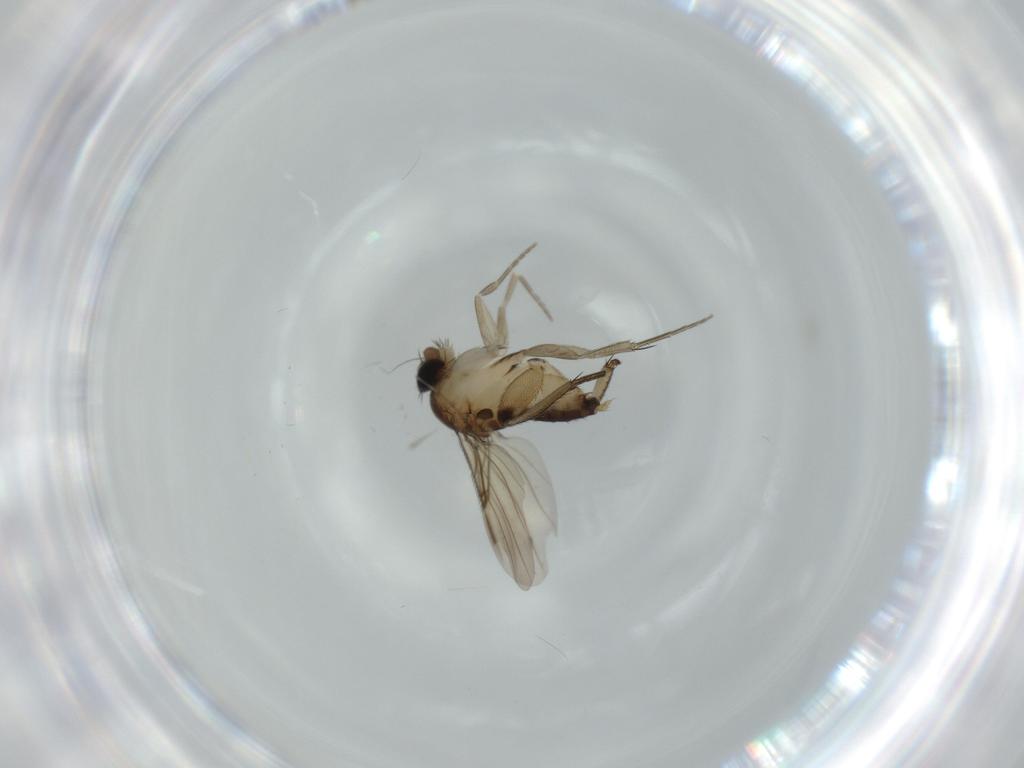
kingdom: Animalia
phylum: Arthropoda
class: Insecta
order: Diptera
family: Phoridae
